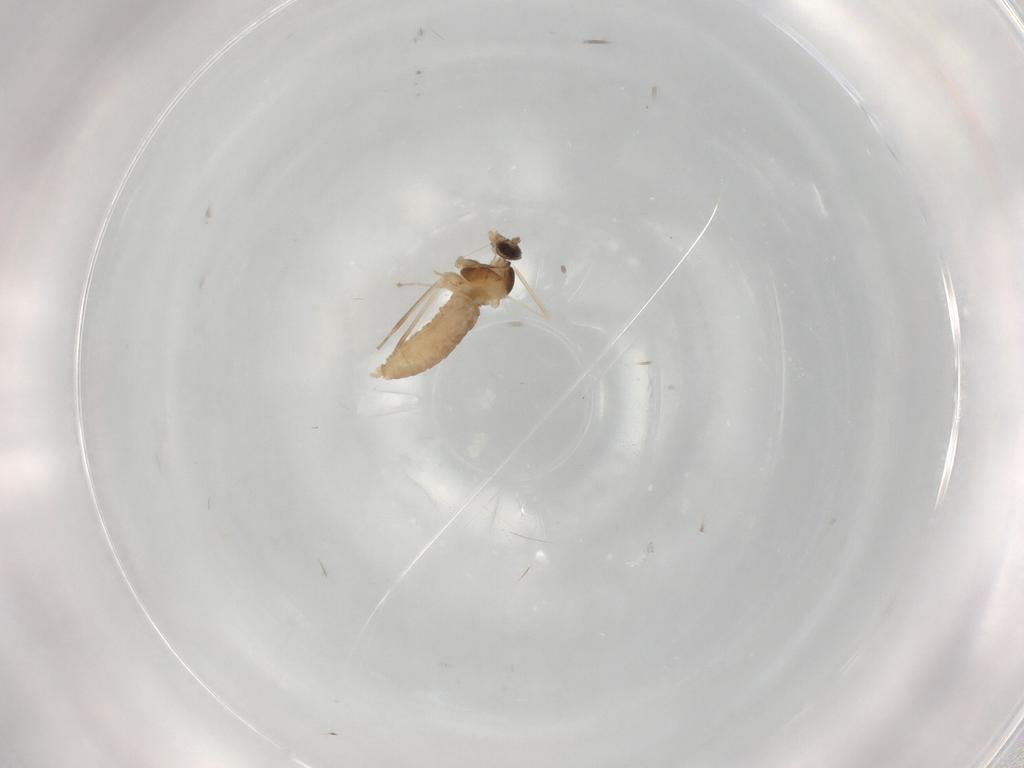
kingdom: Animalia
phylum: Arthropoda
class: Insecta
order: Diptera
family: Cecidomyiidae
